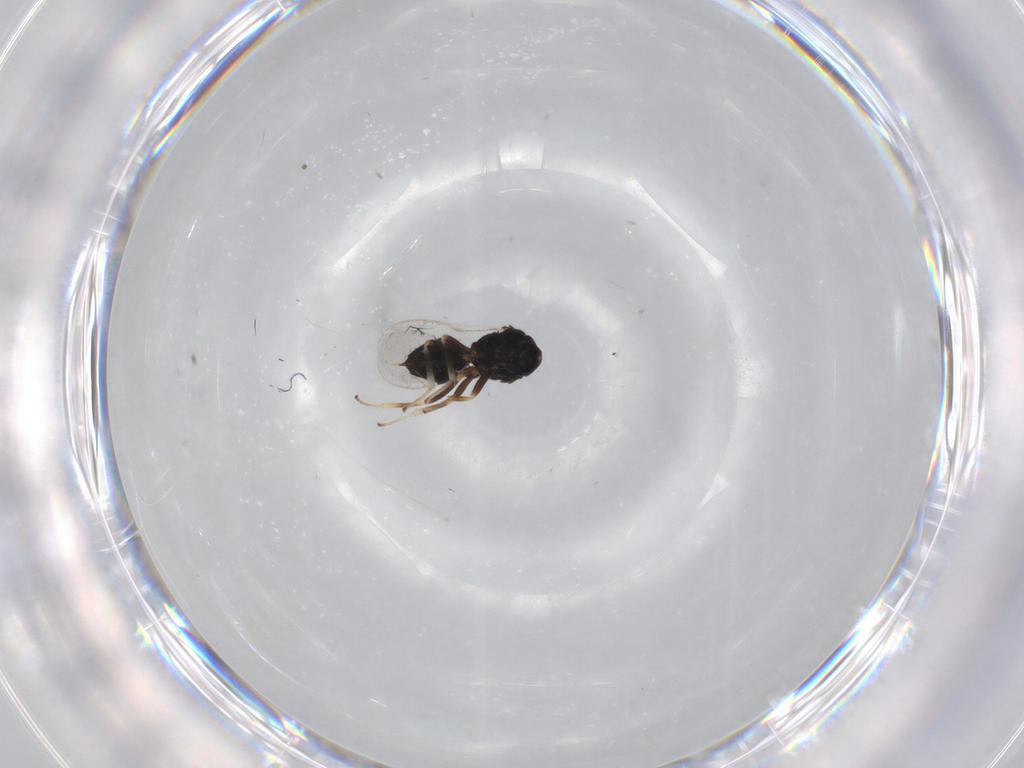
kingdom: Animalia
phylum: Arthropoda
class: Insecta
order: Hymenoptera
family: Pteromalidae
